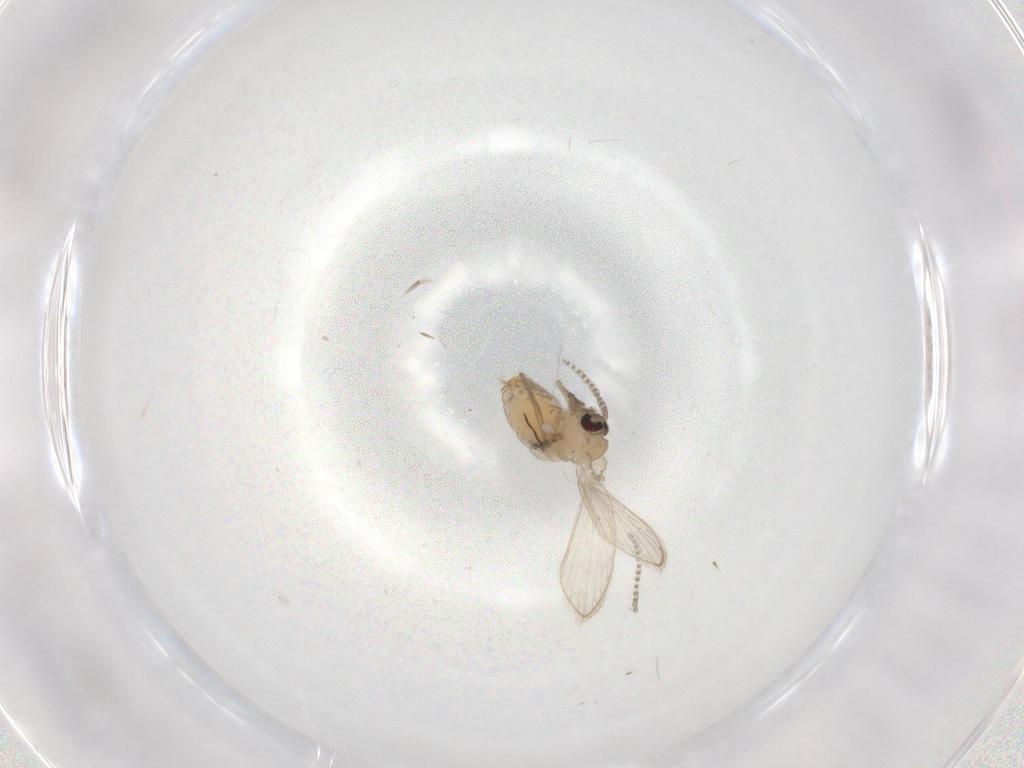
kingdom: Animalia
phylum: Arthropoda
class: Insecta
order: Diptera
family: Psychodidae
